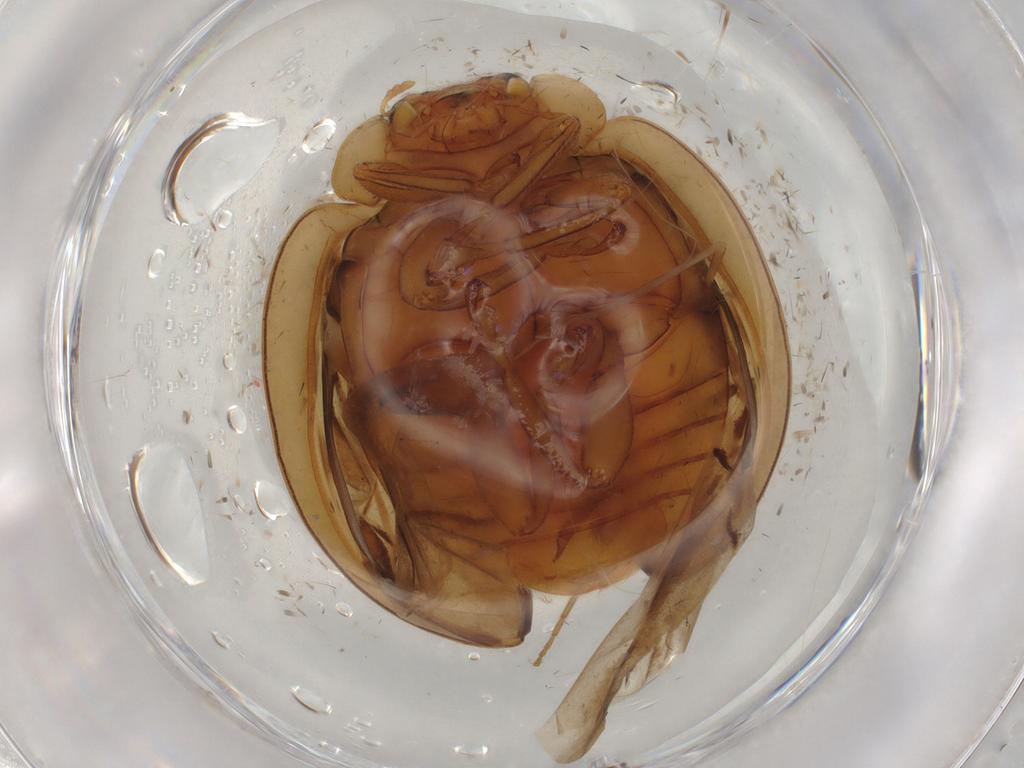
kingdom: Animalia
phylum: Arthropoda
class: Insecta
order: Coleoptera
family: Coccinellidae
